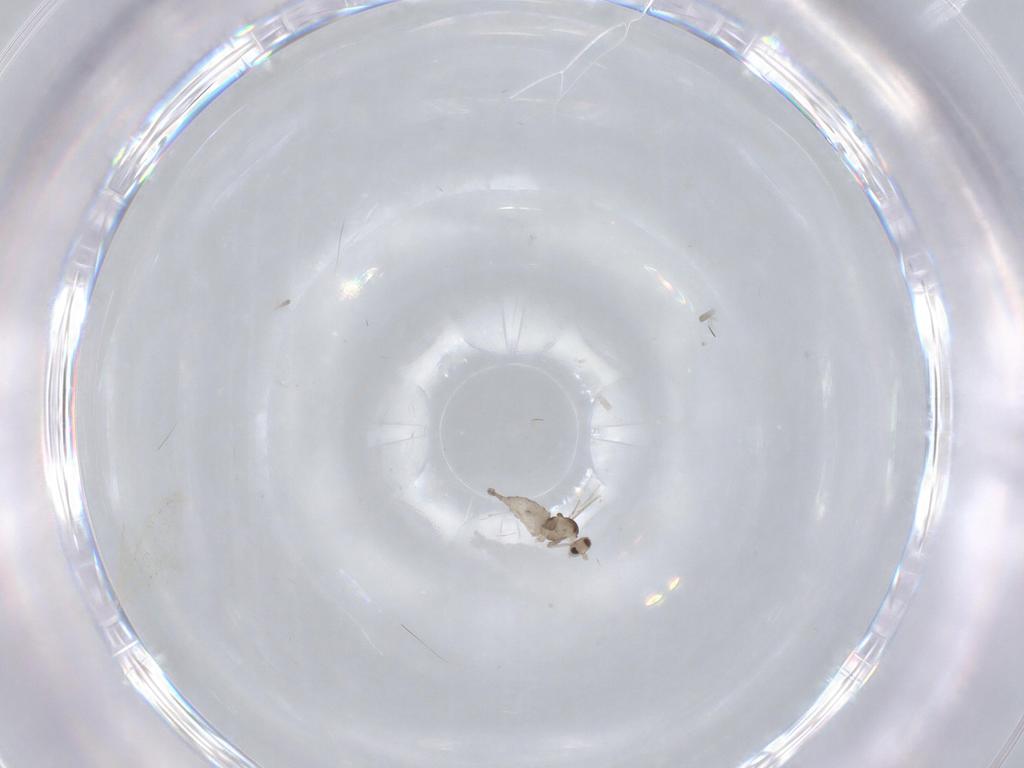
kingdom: Animalia
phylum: Arthropoda
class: Insecta
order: Diptera
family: Cecidomyiidae
